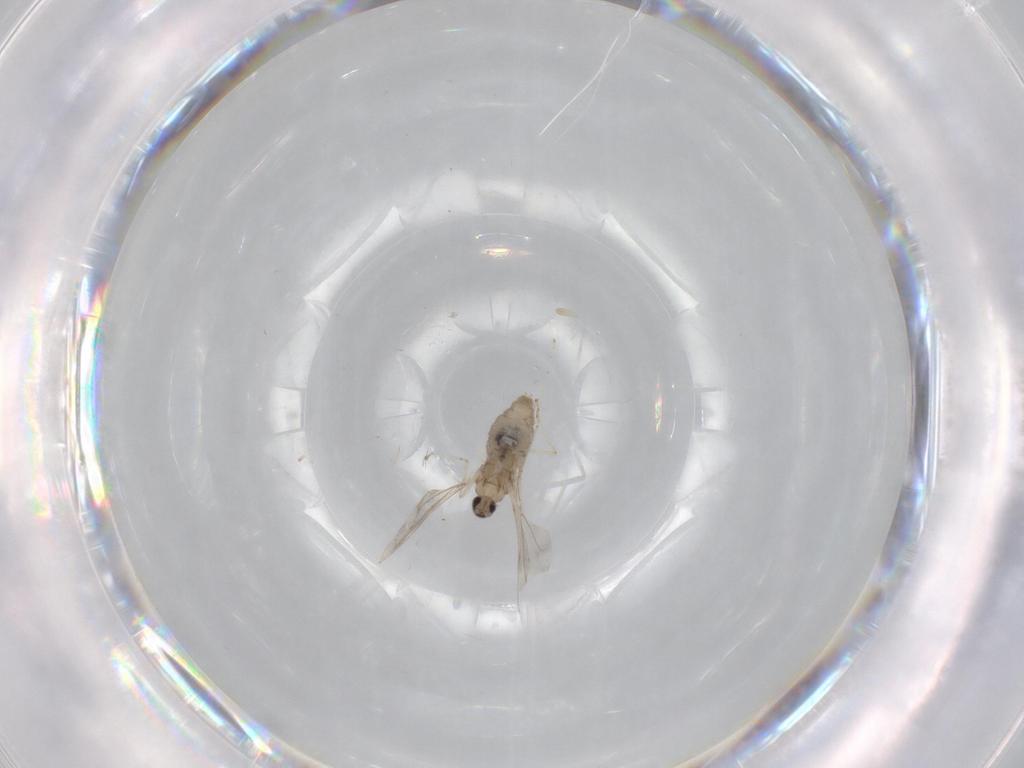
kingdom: Animalia
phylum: Arthropoda
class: Insecta
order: Diptera
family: Cecidomyiidae
